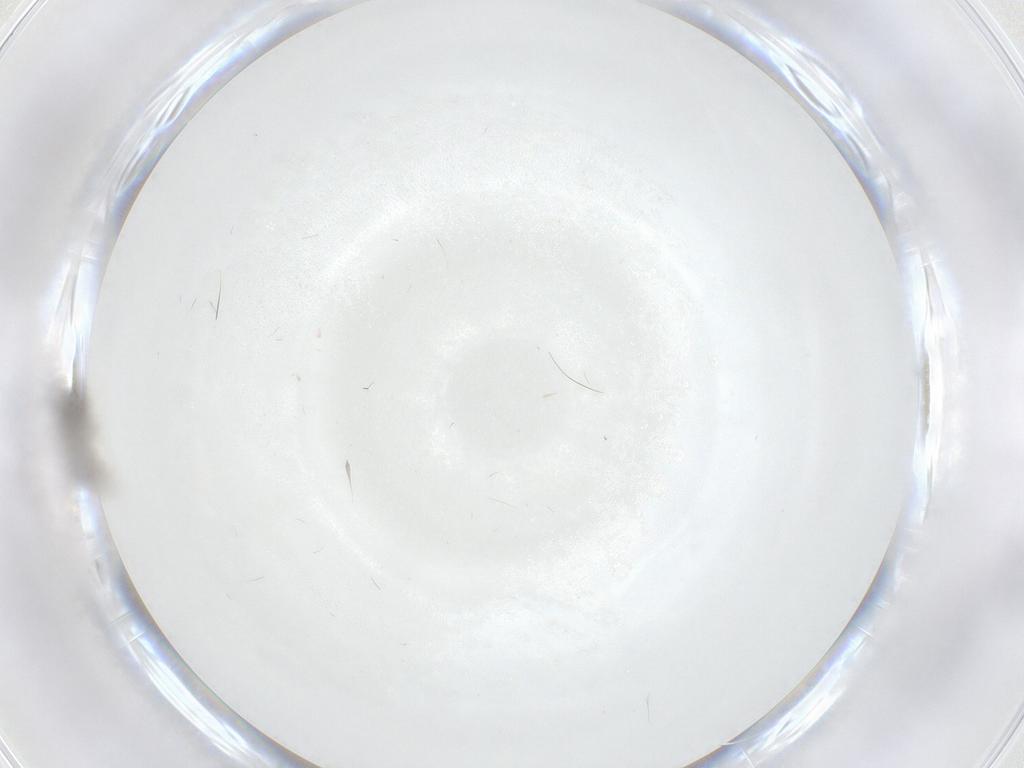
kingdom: Animalia
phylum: Arthropoda
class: Insecta
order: Diptera
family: Phoridae
